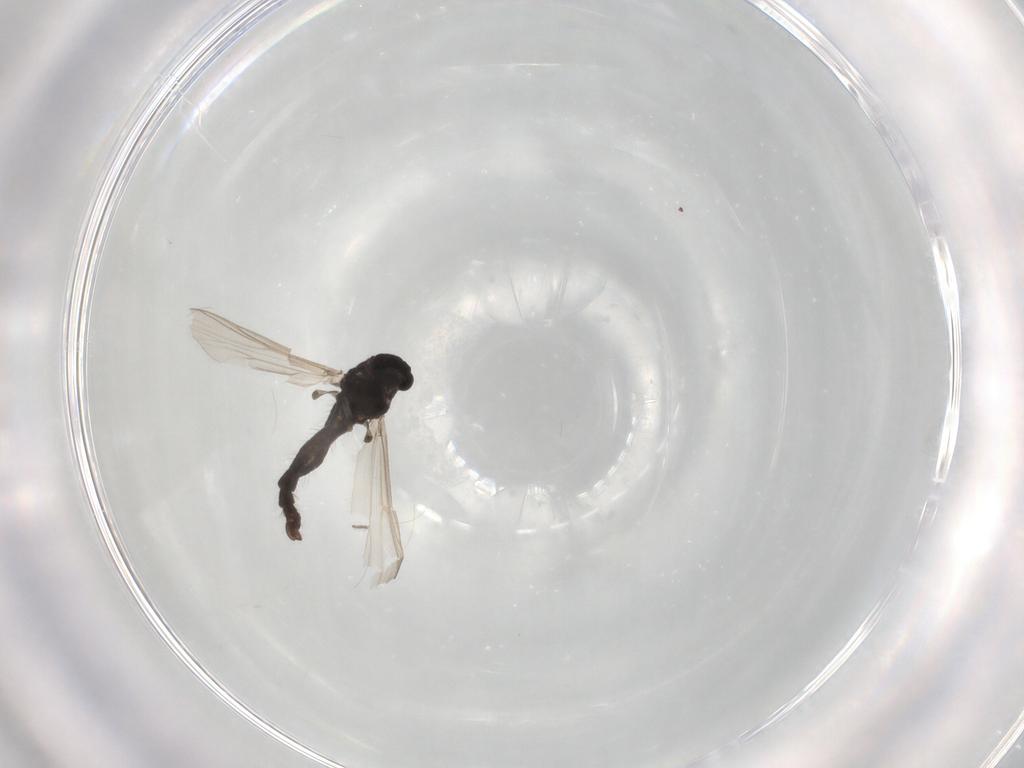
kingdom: Animalia
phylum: Arthropoda
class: Insecta
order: Diptera
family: Chironomidae
